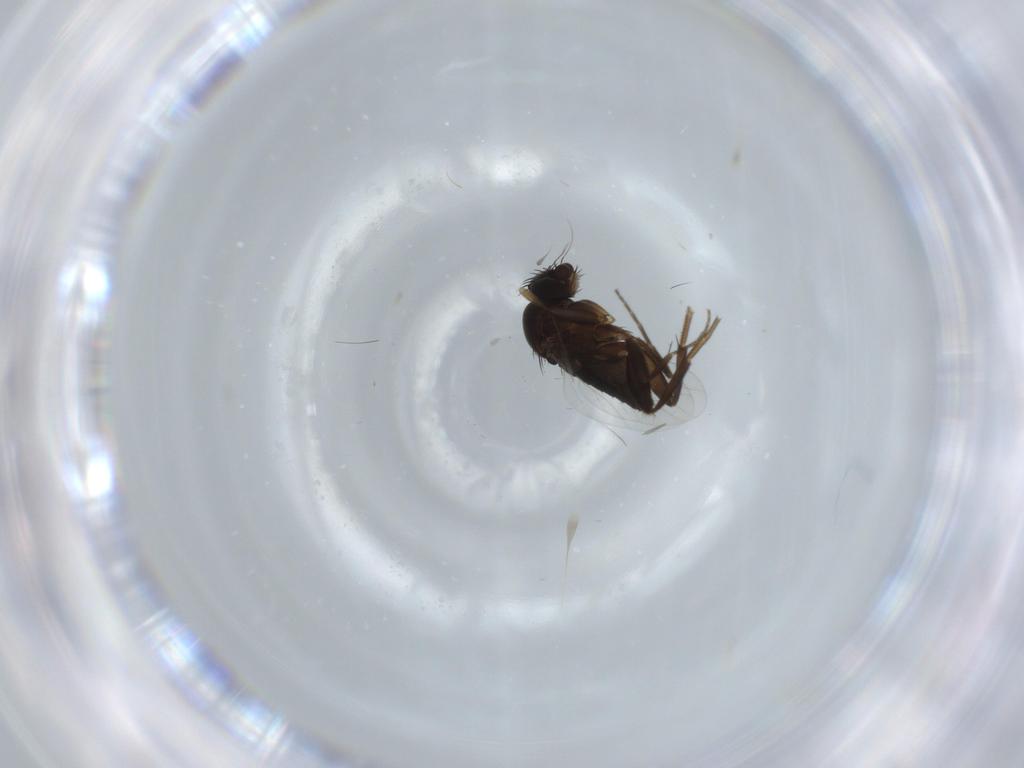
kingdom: Animalia
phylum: Arthropoda
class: Insecta
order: Diptera
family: Phoridae
